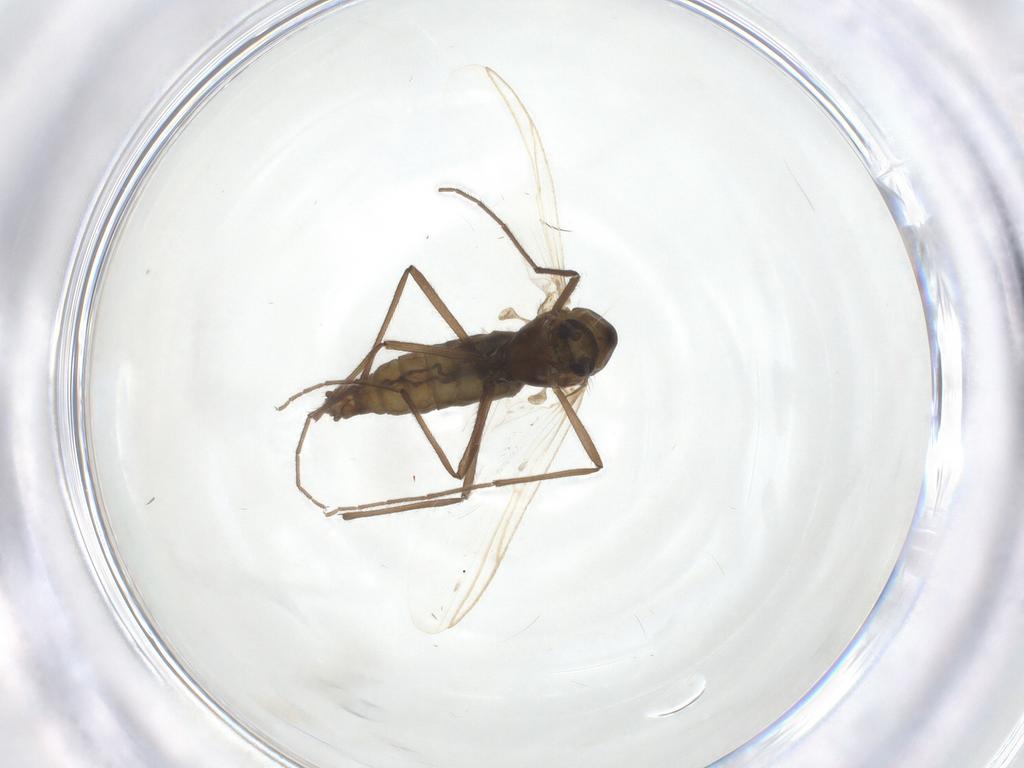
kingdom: Animalia
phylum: Arthropoda
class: Insecta
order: Diptera
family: Chironomidae
